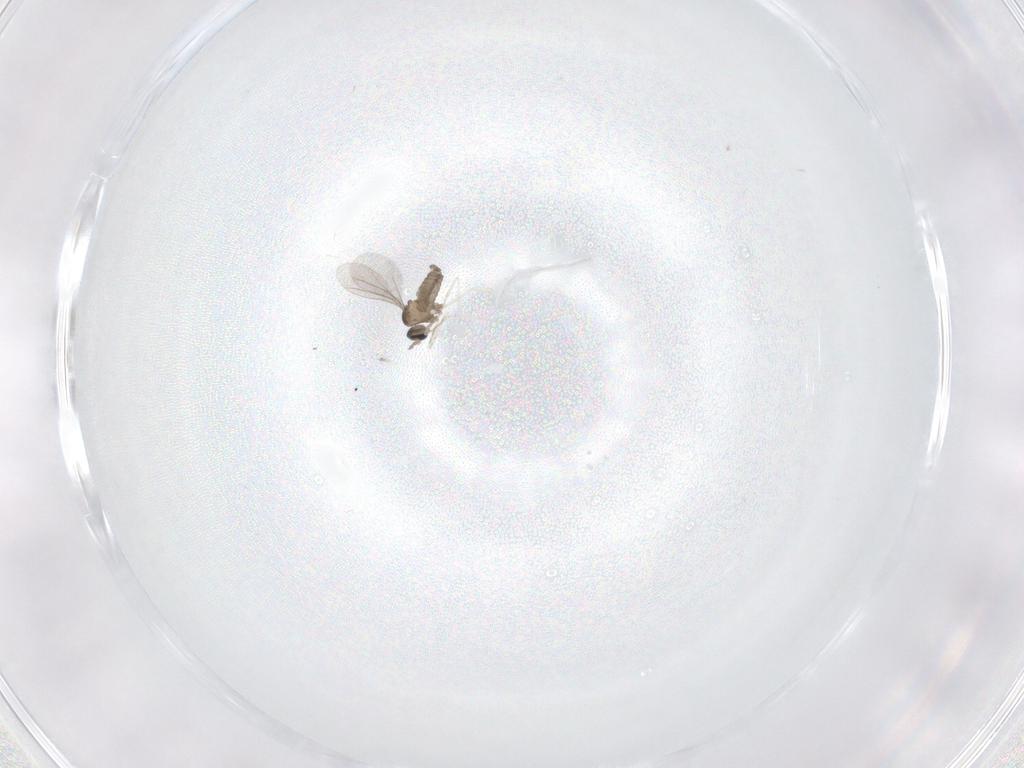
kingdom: Animalia
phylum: Arthropoda
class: Insecta
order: Diptera
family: Cecidomyiidae
